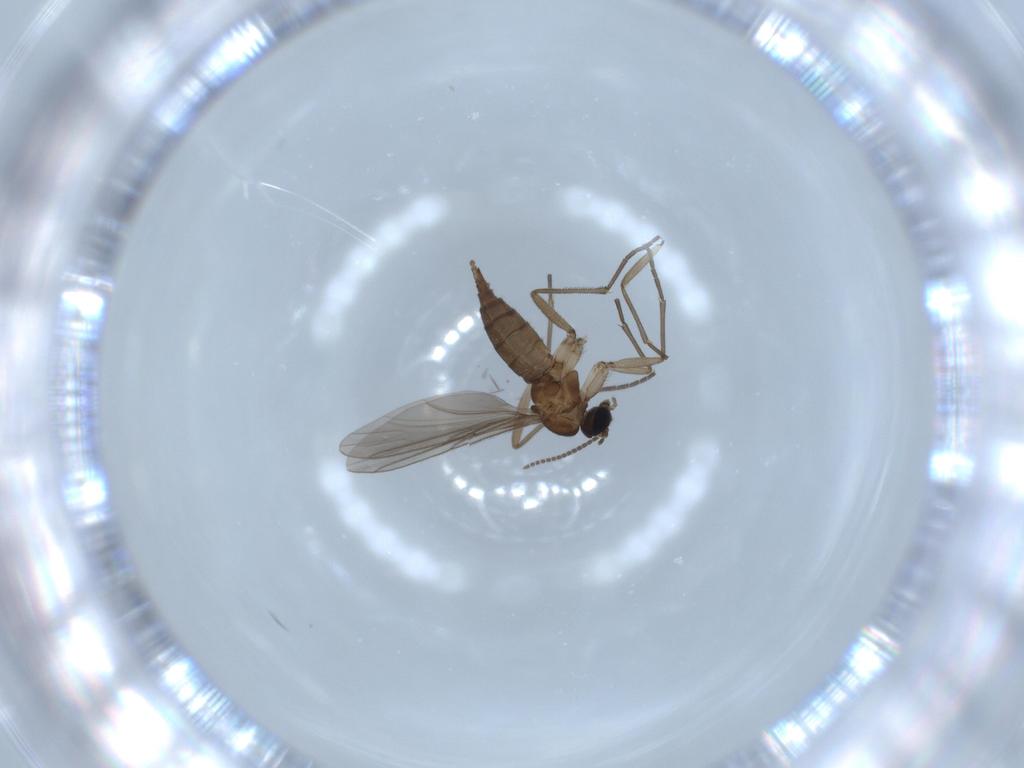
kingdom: Animalia
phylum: Arthropoda
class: Insecta
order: Diptera
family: Sciaridae
